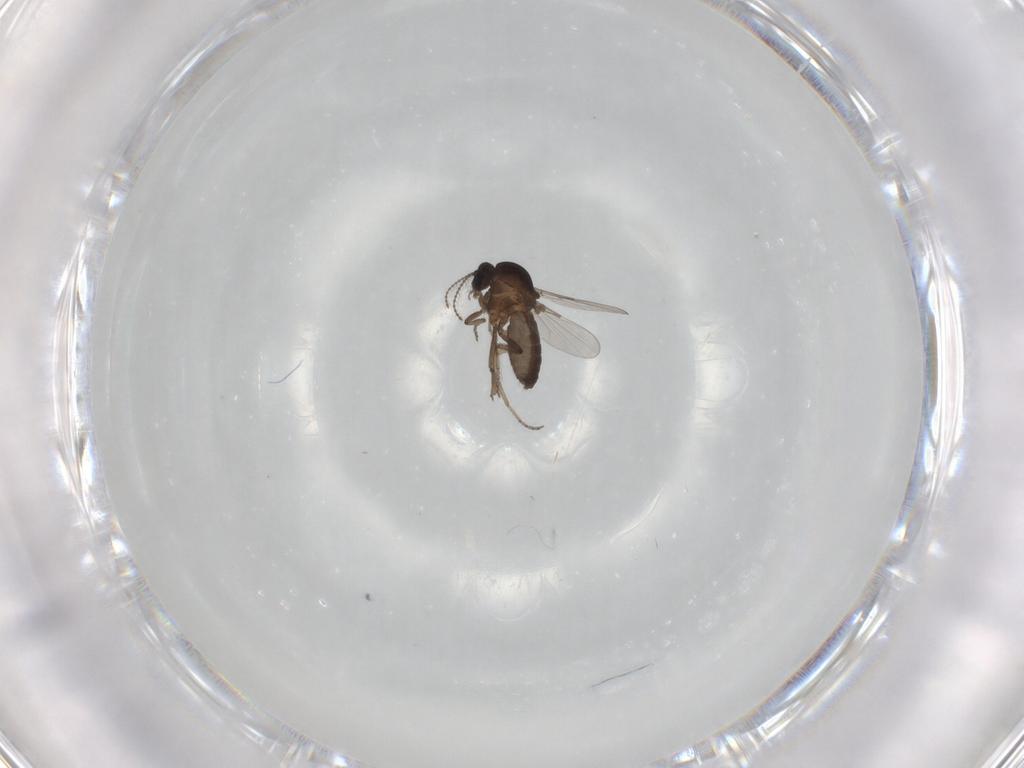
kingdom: Animalia
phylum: Arthropoda
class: Insecta
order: Diptera
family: Ceratopogonidae
